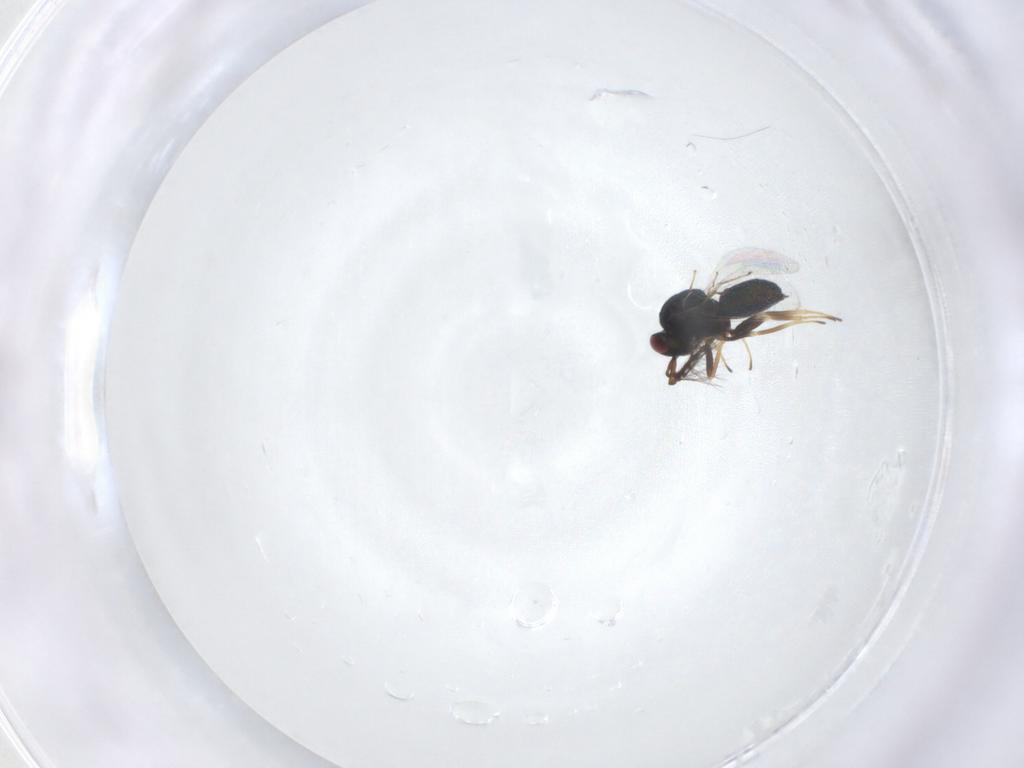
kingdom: Animalia
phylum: Arthropoda
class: Insecta
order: Hymenoptera
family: Eulophidae
